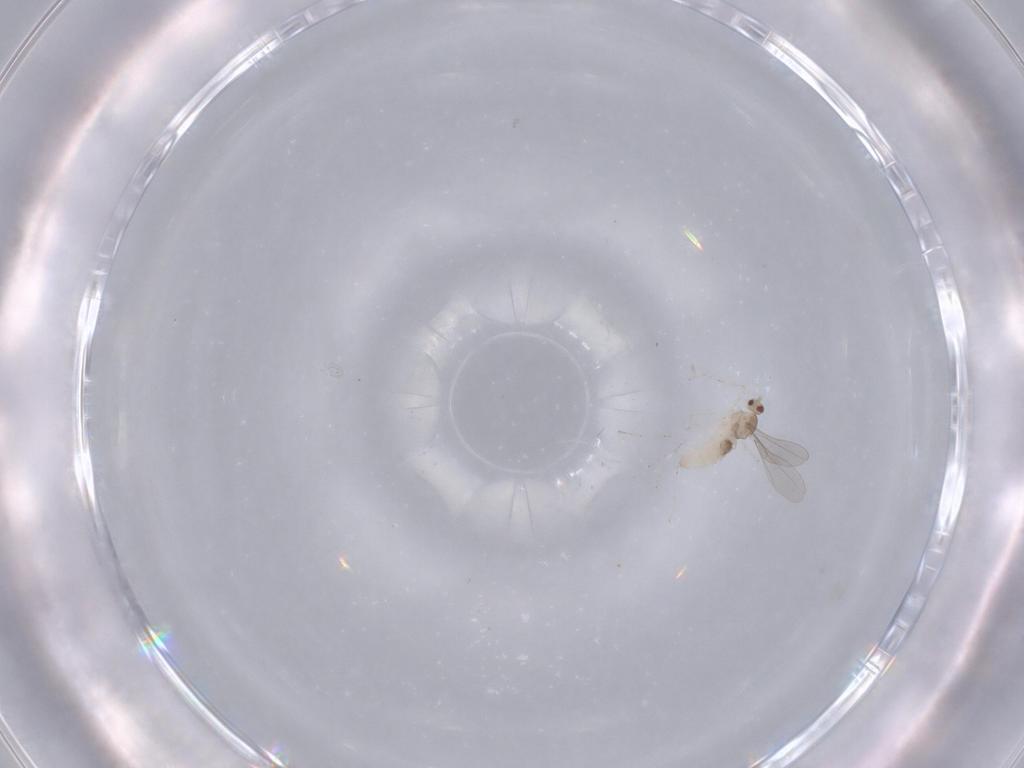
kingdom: Animalia
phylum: Arthropoda
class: Insecta
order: Diptera
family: Cecidomyiidae
